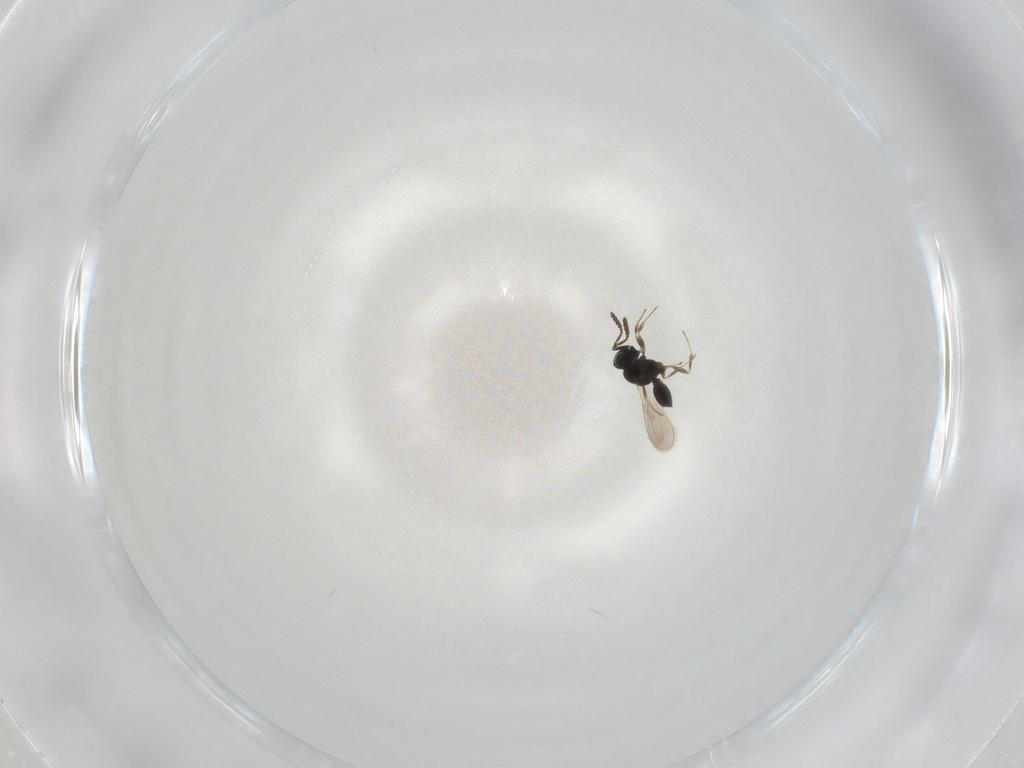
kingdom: Animalia
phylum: Arthropoda
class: Insecta
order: Hymenoptera
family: Scelionidae
